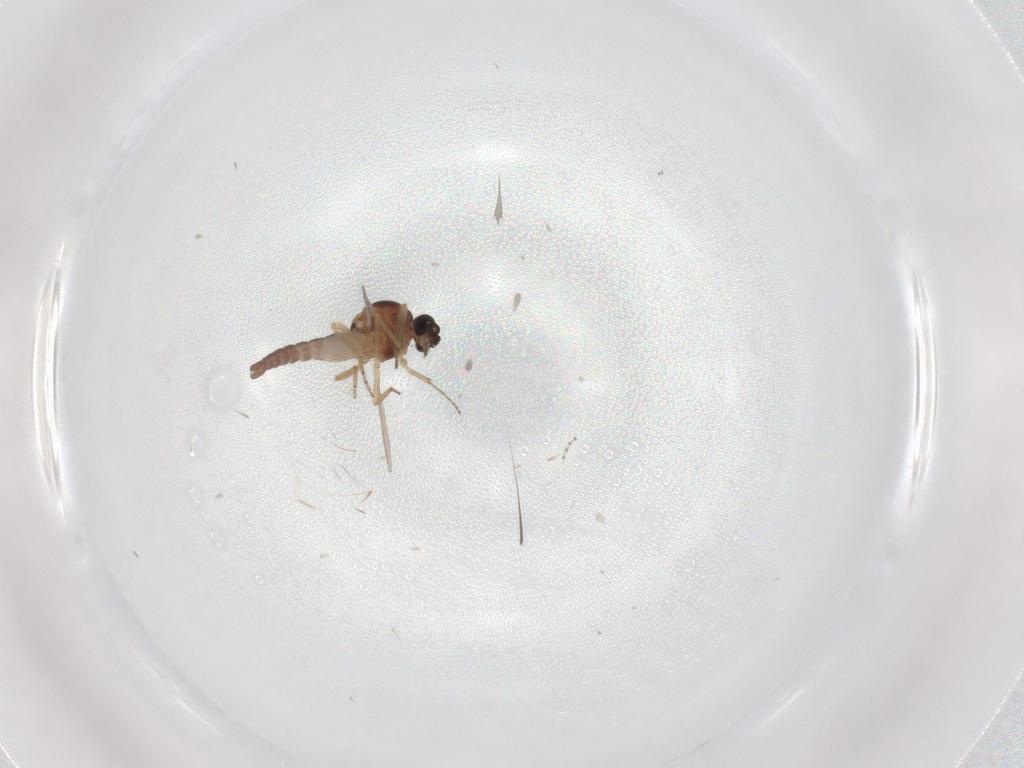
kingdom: Animalia
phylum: Arthropoda
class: Insecta
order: Diptera
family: Ceratopogonidae
